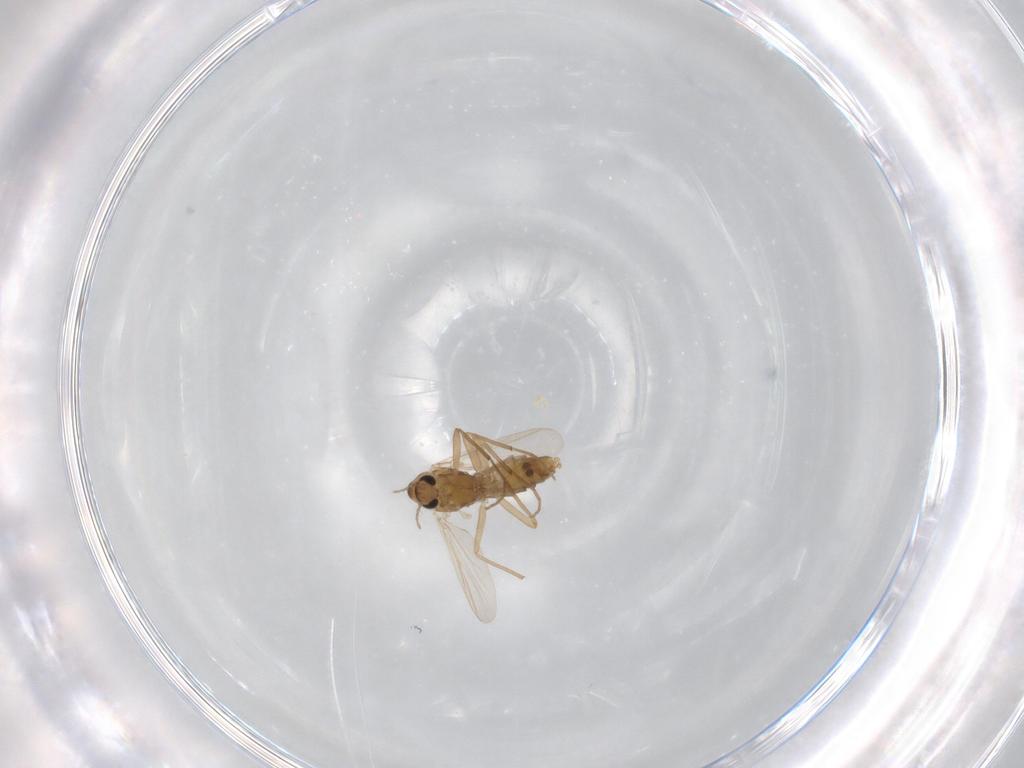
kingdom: Animalia
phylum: Arthropoda
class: Insecta
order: Diptera
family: Chironomidae
